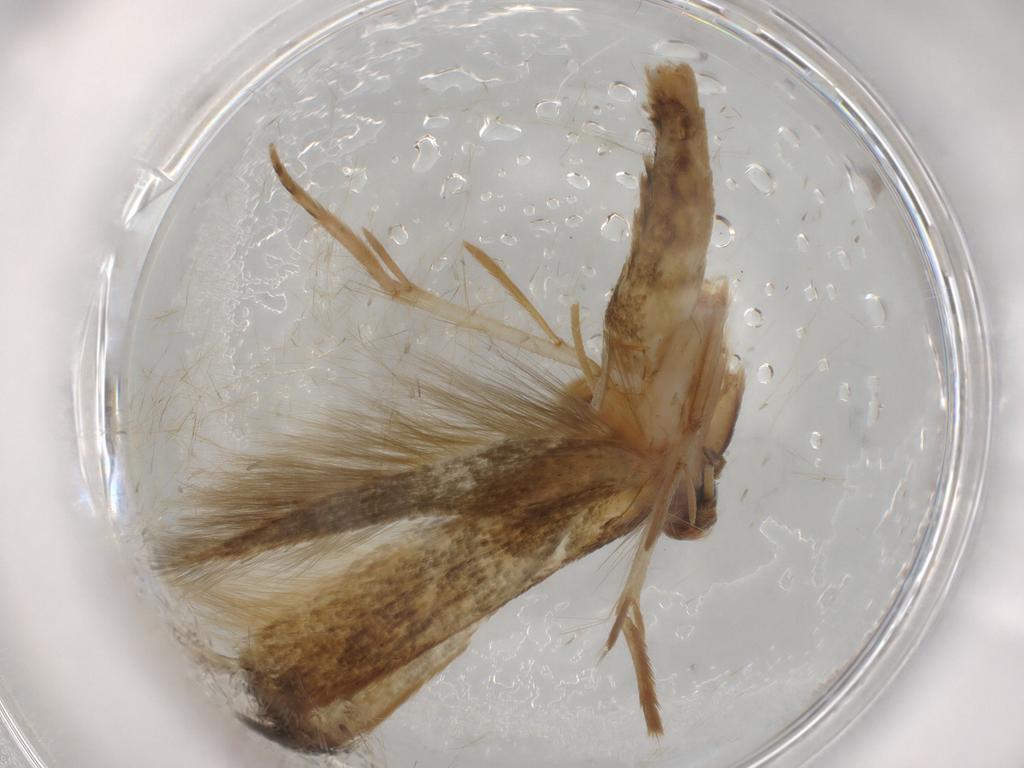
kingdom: Animalia
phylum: Arthropoda
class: Insecta
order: Lepidoptera
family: Tineidae
